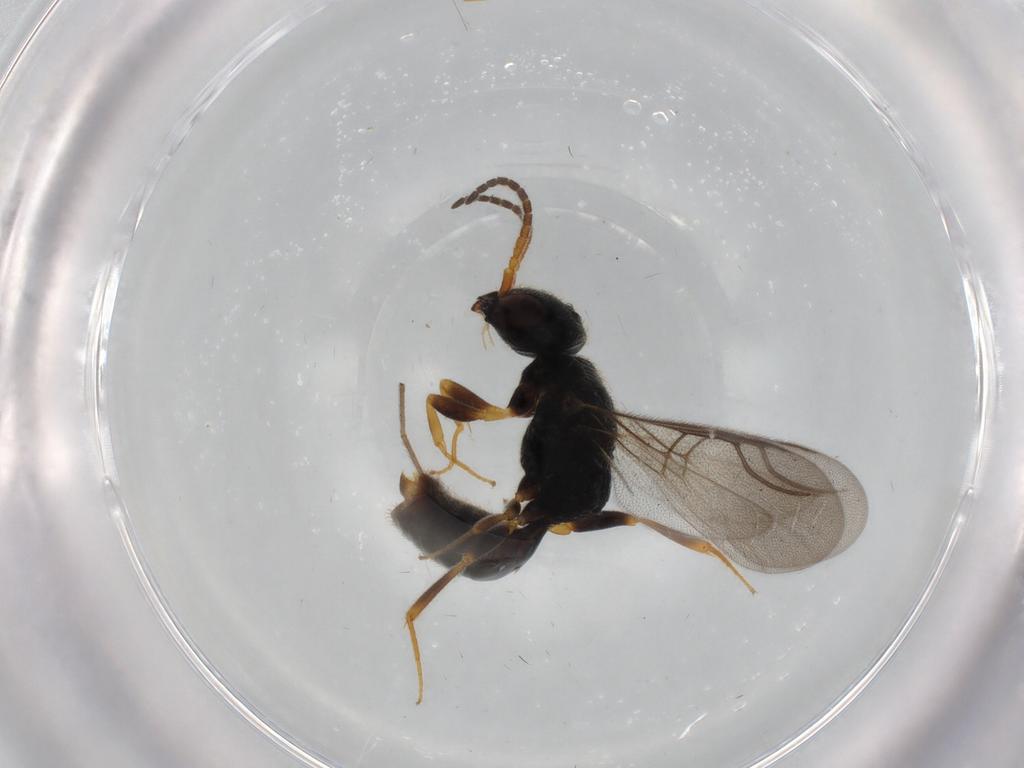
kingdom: Animalia
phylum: Arthropoda
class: Insecta
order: Hymenoptera
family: Bethylidae
